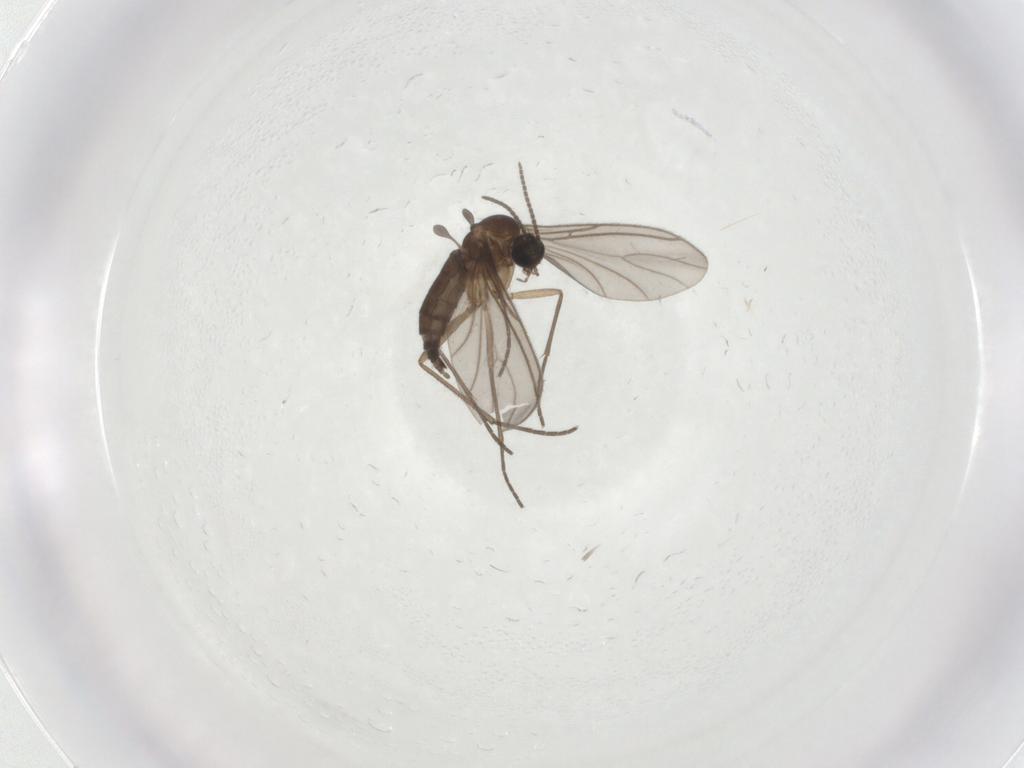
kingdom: Animalia
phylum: Arthropoda
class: Insecta
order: Diptera
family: Sciaridae
